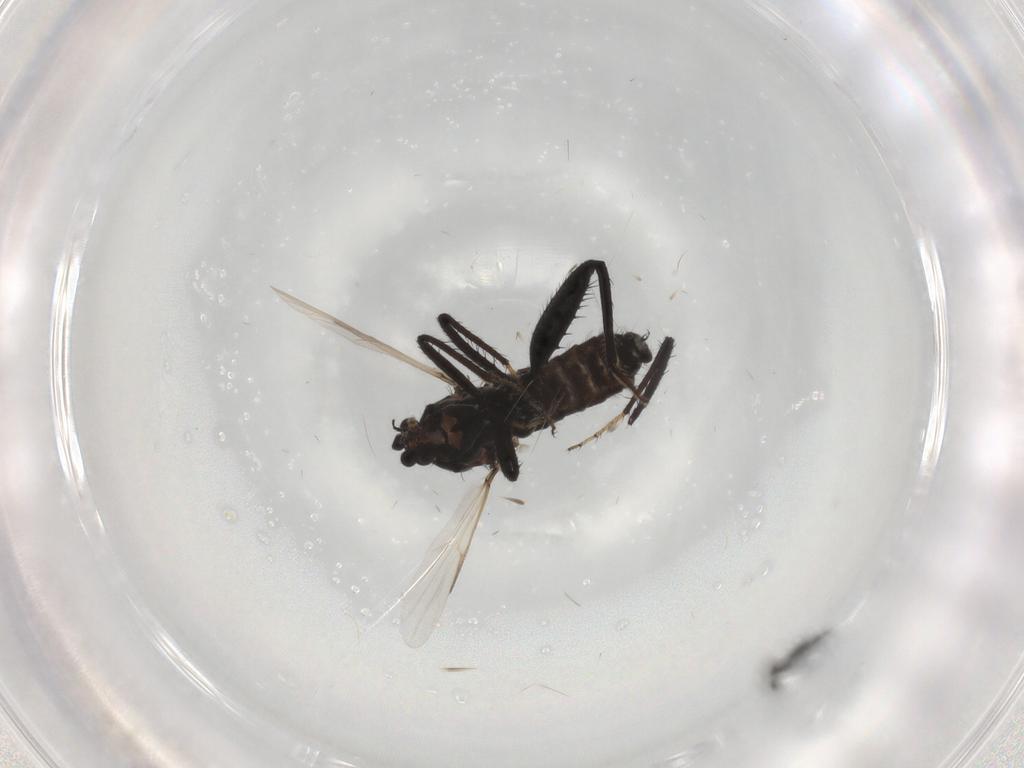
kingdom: Animalia
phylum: Arthropoda
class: Insecta
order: Diptera
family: Ceratopogonidae
